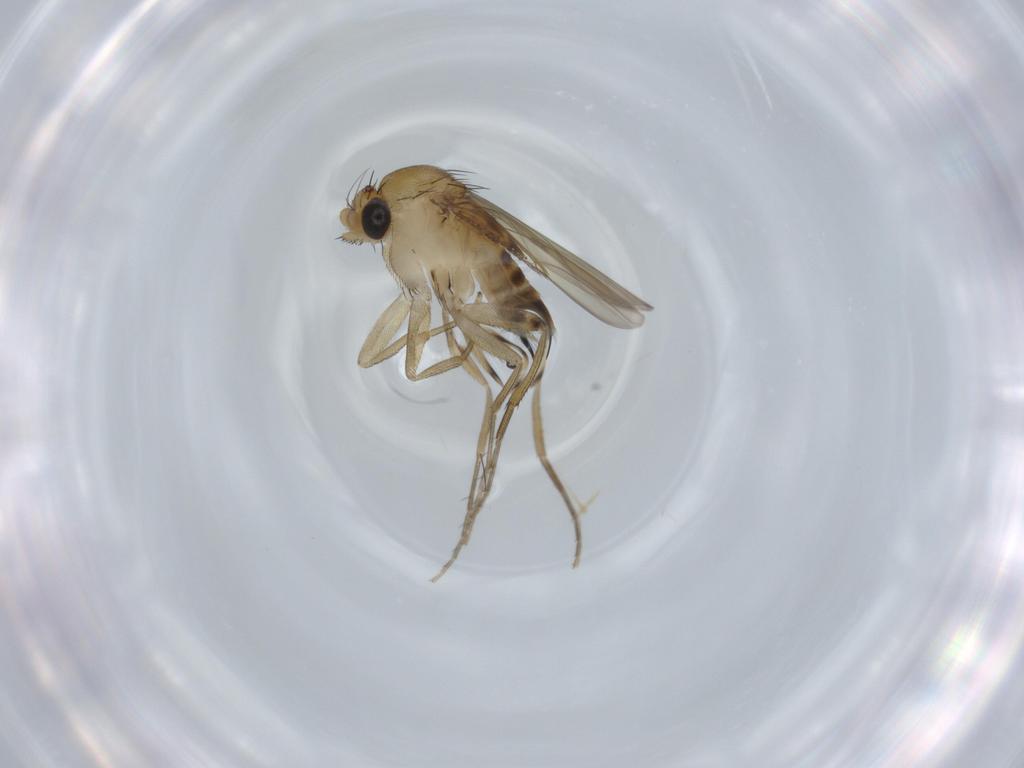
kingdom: Animalia
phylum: Arthropoda
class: Insecta
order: Diptera
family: Phoridae
